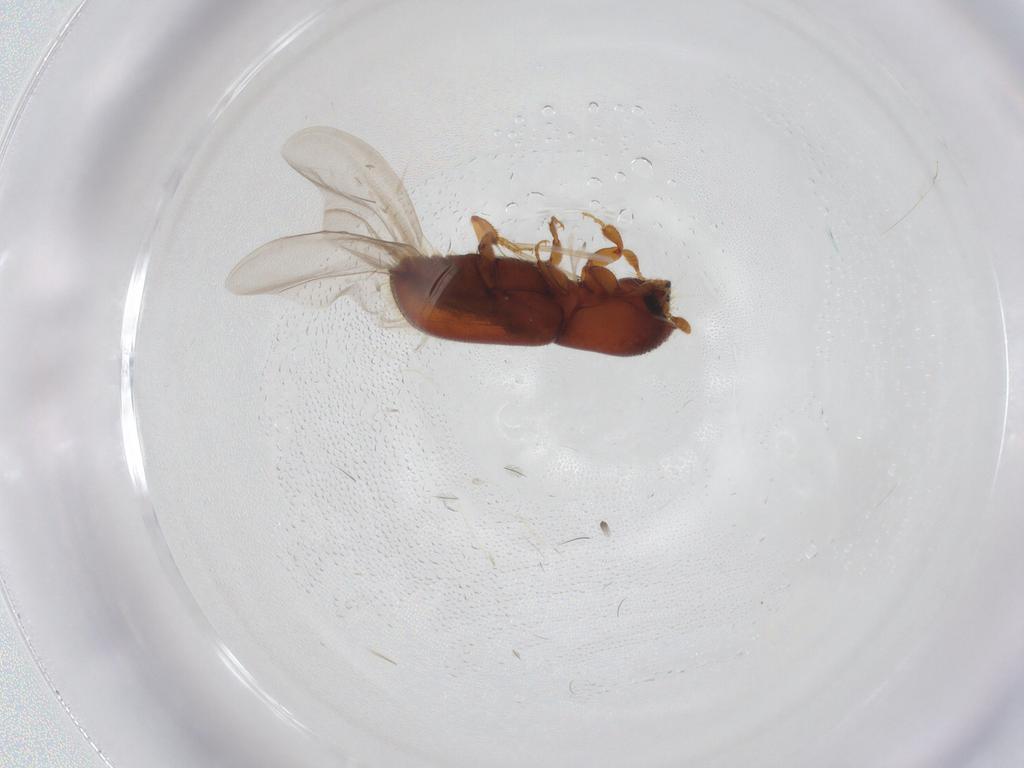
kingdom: Animalia
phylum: Arthropoda
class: Insecta
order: Coleoptera
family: Curculionidae
